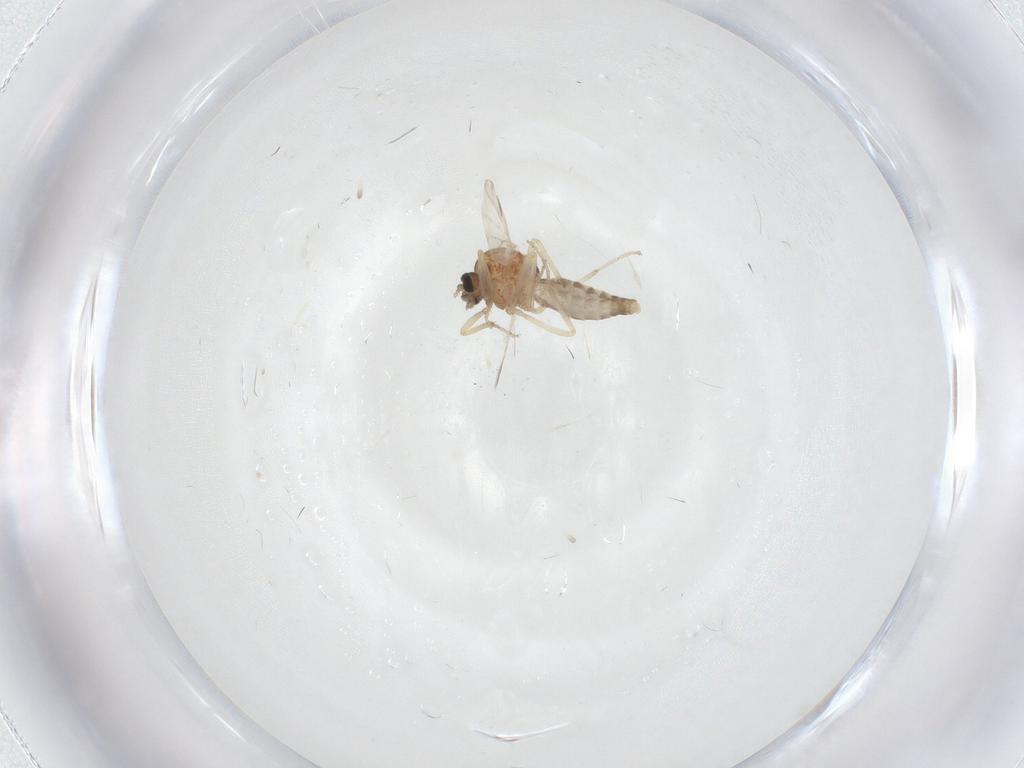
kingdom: Animalia
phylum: Arthropoda
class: Insecta
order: Diptera
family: Ceratopogonidae
